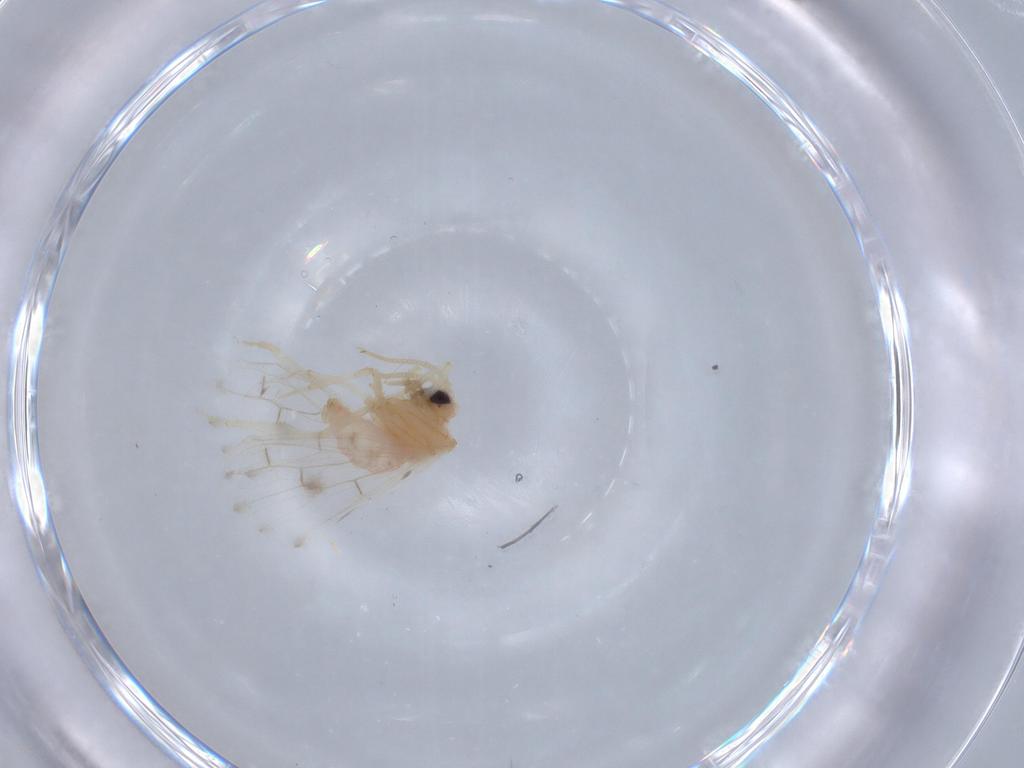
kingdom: Animalia
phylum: Arthropoda
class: Insecta
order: Neuroptera
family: Coniopterygidae
